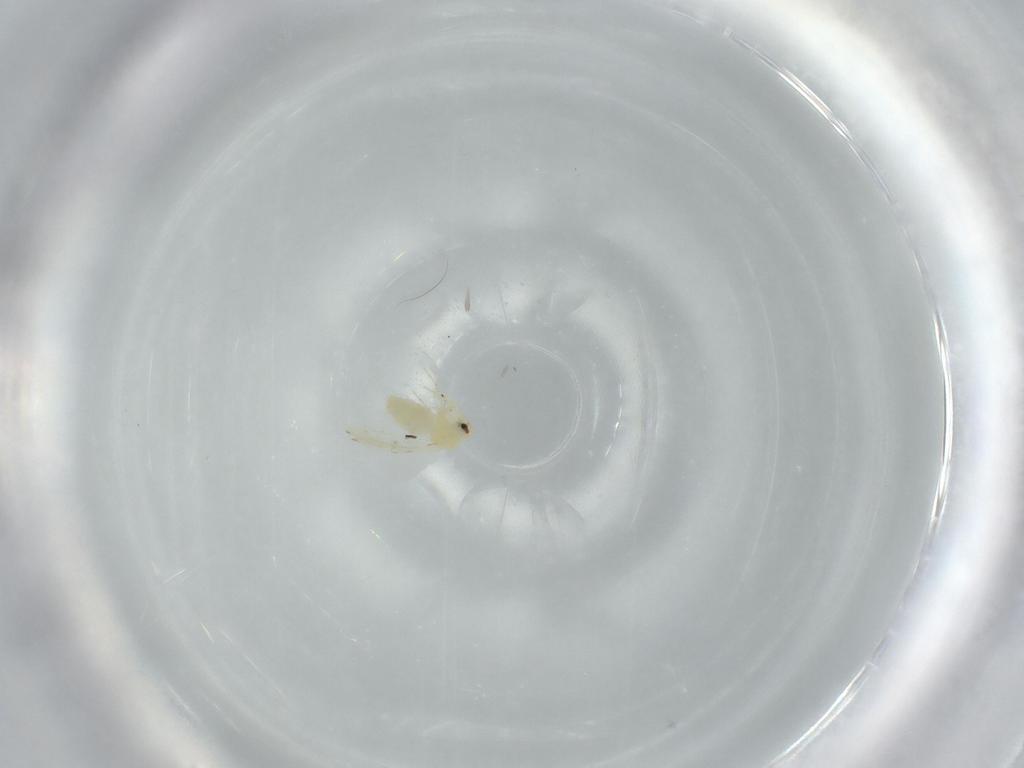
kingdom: Animalia
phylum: Arthropoda
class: Insecta
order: Hemiptera
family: Aleyrodidae
